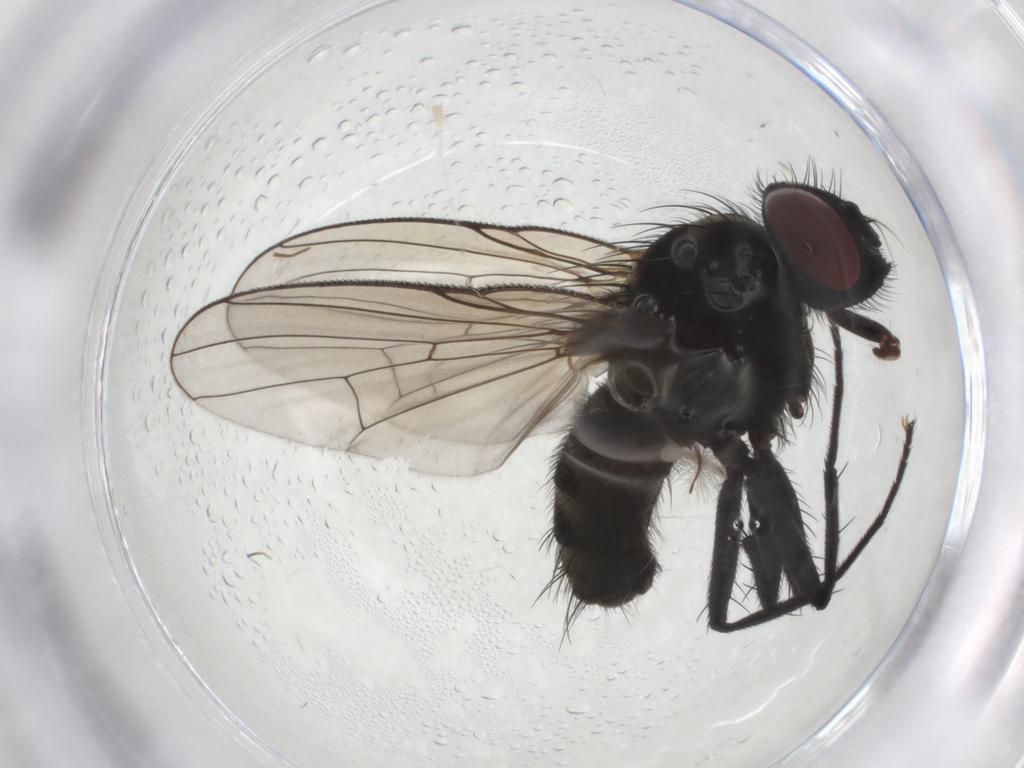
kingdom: Animalia
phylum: Arthropoda
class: Insecta
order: Diptera
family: Muscidae
